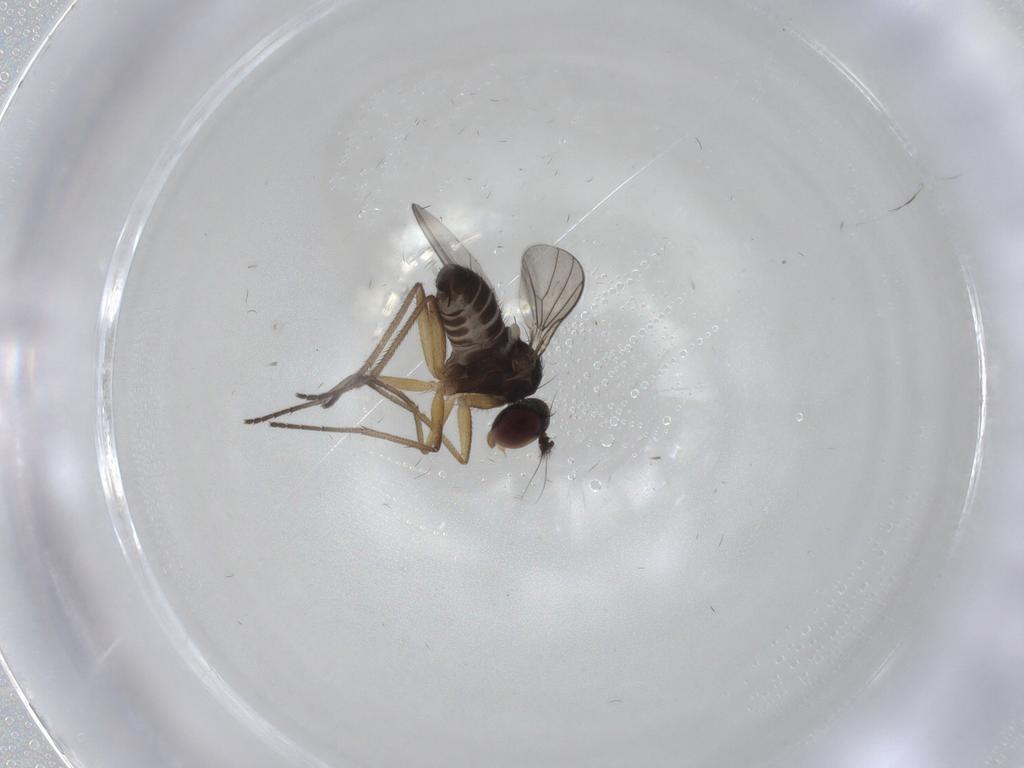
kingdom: Animalia
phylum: Arthropoda
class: Insecta
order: Diptera
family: Dolichopodidae
